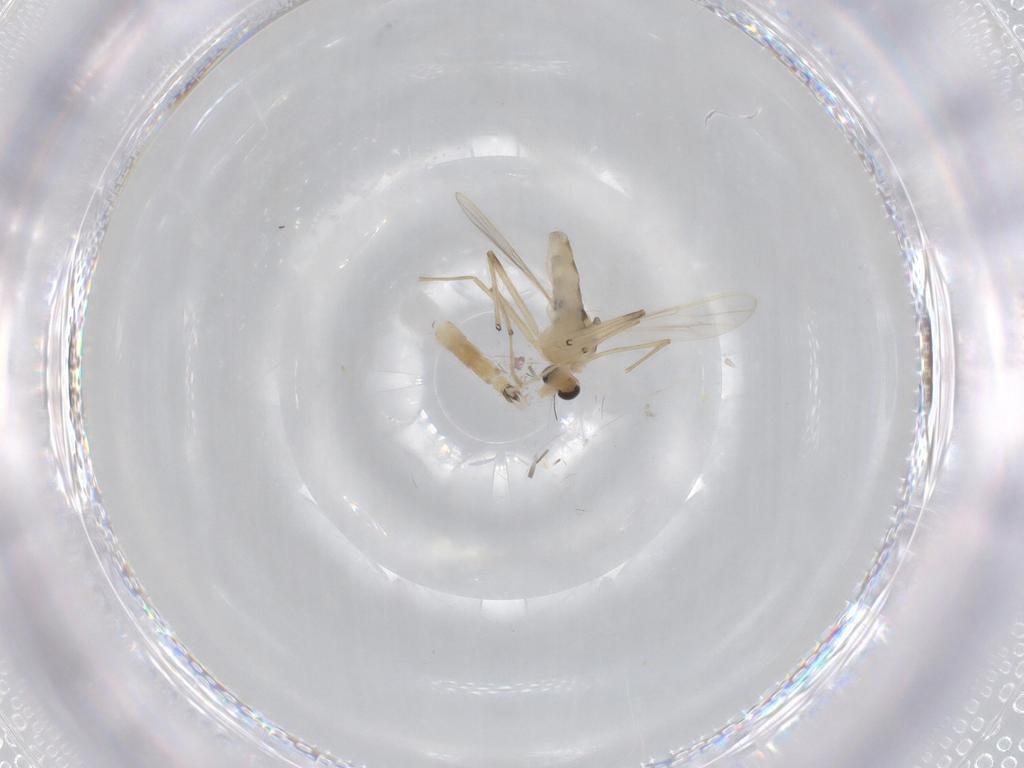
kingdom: Animalia
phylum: Arthropoda
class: Insecta
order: Diptera
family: Chironomidae
